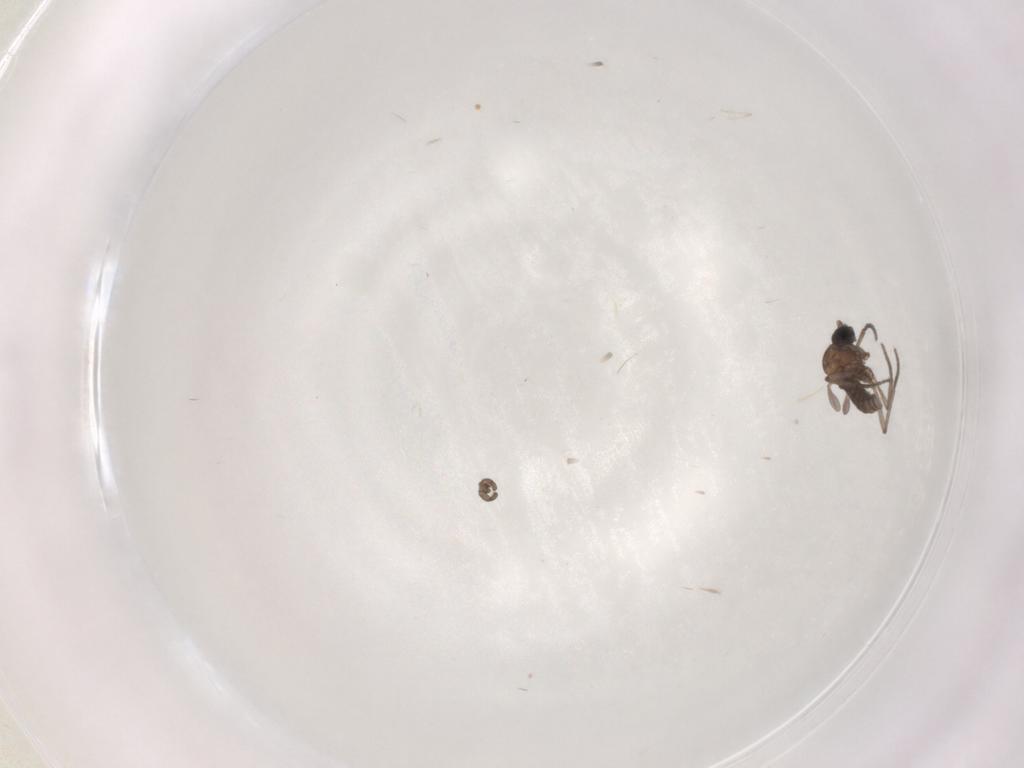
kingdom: Animalia
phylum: Arthropoda
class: Insecta
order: Diptera
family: Cecidomyiidae
